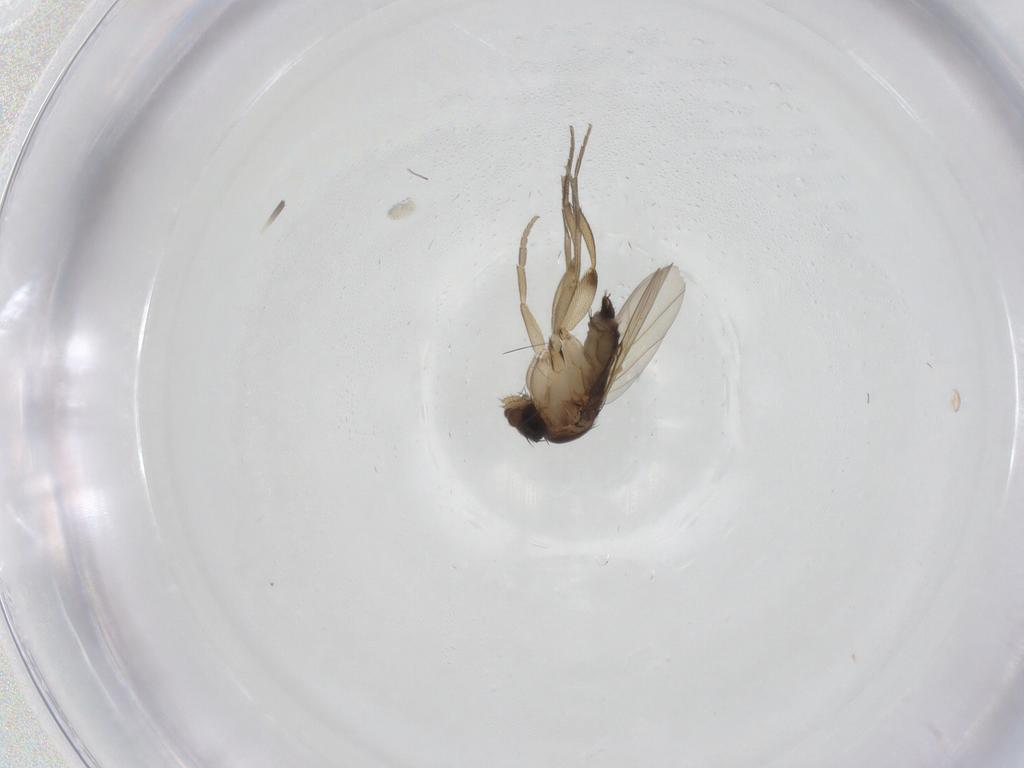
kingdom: Animalia
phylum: Arthropoda
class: Insecta
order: Diptera
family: Phoridae
